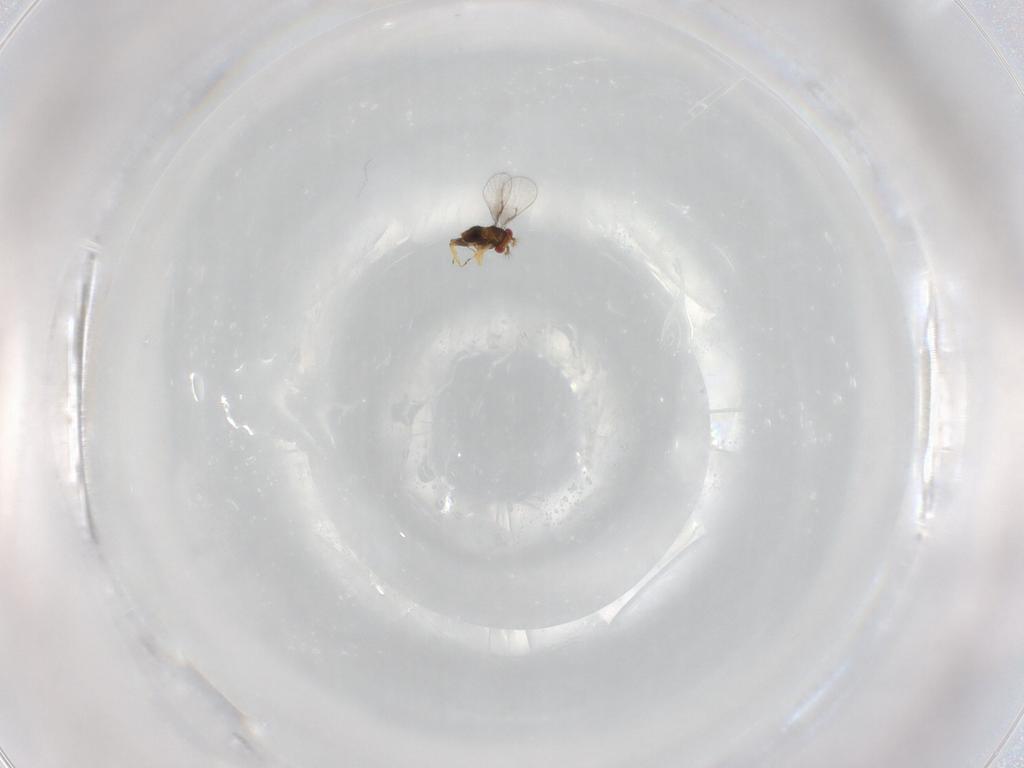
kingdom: Animalia
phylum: Arthropoda
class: Insecta
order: Hymenoptera
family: Trichogrammatidae
